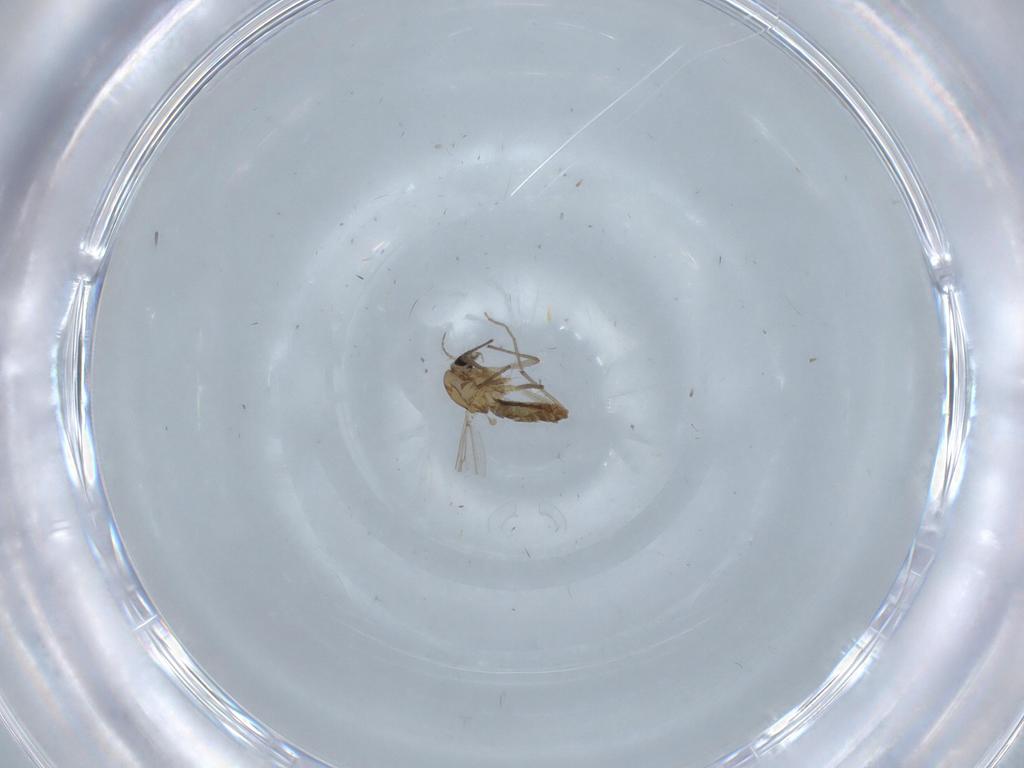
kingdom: Animalia
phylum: Arthropoda
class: Insecta
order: Diptera
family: Chironomidae
